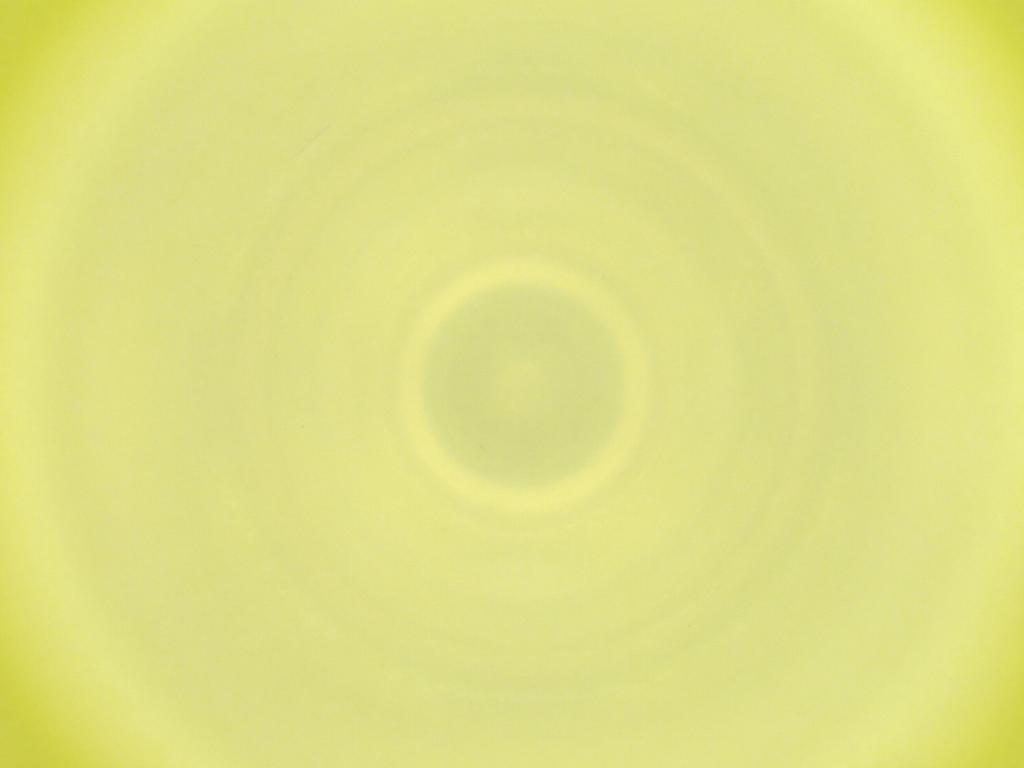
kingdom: Animalia
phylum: Arthropoda
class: Insecta
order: Diptera
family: Cecidomyiidae
